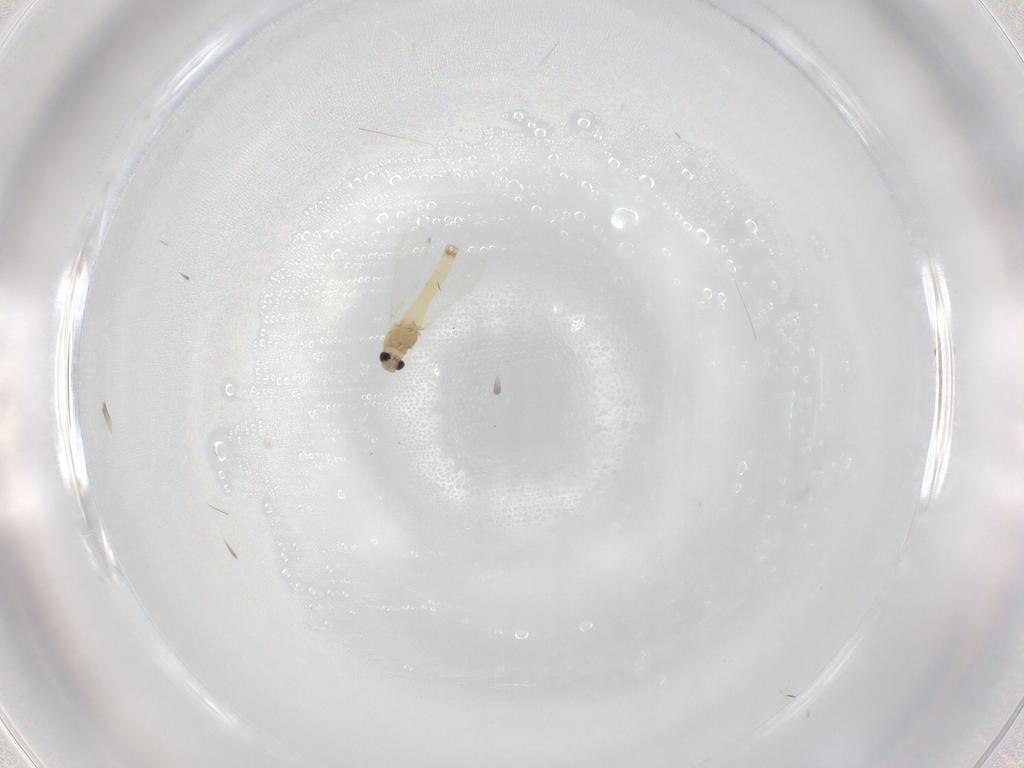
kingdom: Animalia
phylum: Arthropoda
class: Insecta
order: Diptera
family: Chironomidae
